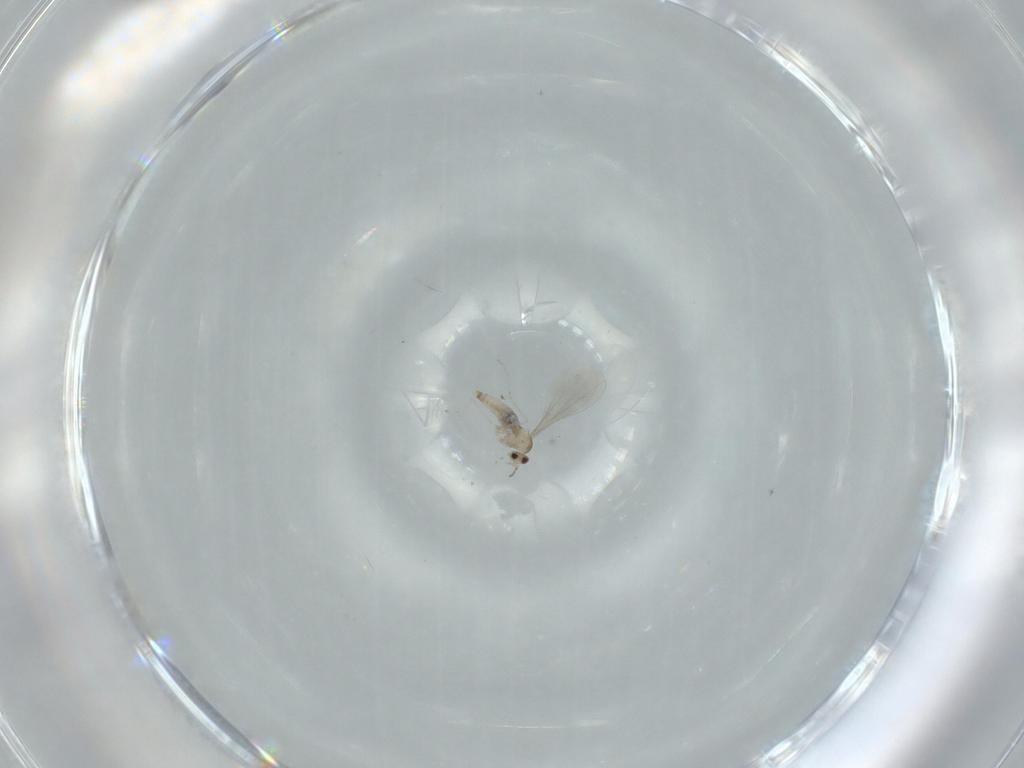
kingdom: Animalia
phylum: Arthropoda
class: Insecta
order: Diptera
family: Cecidomyiidae
